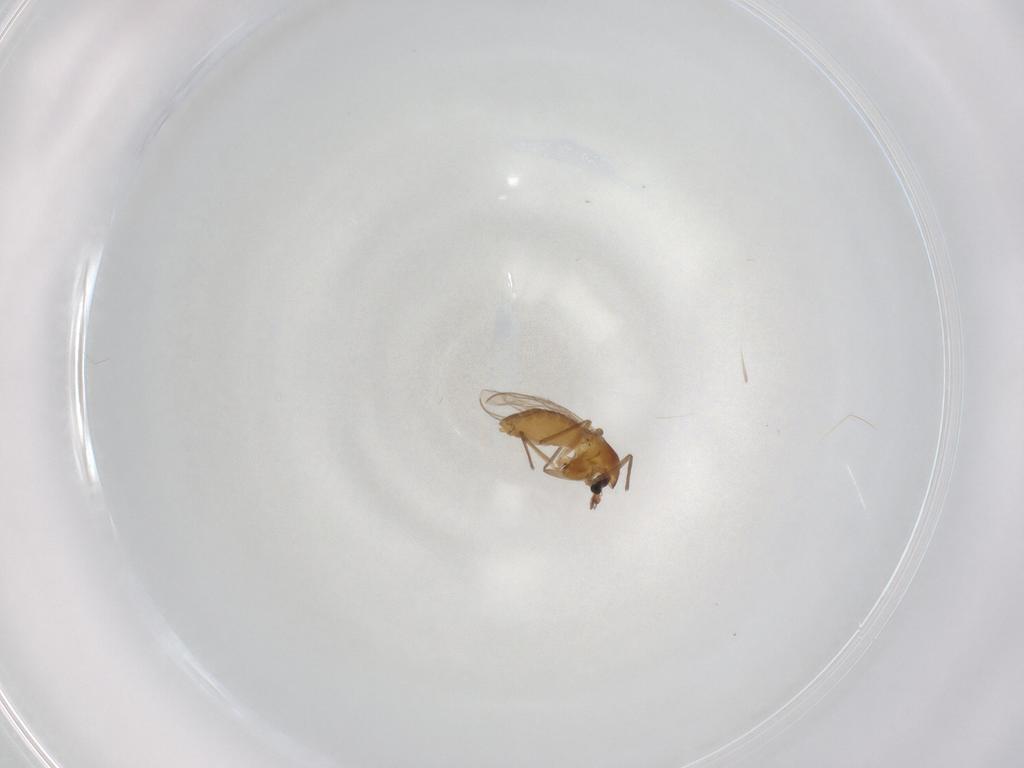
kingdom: Animalia
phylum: Arthropoda
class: Insecta
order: Diptera
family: Chironomidae
